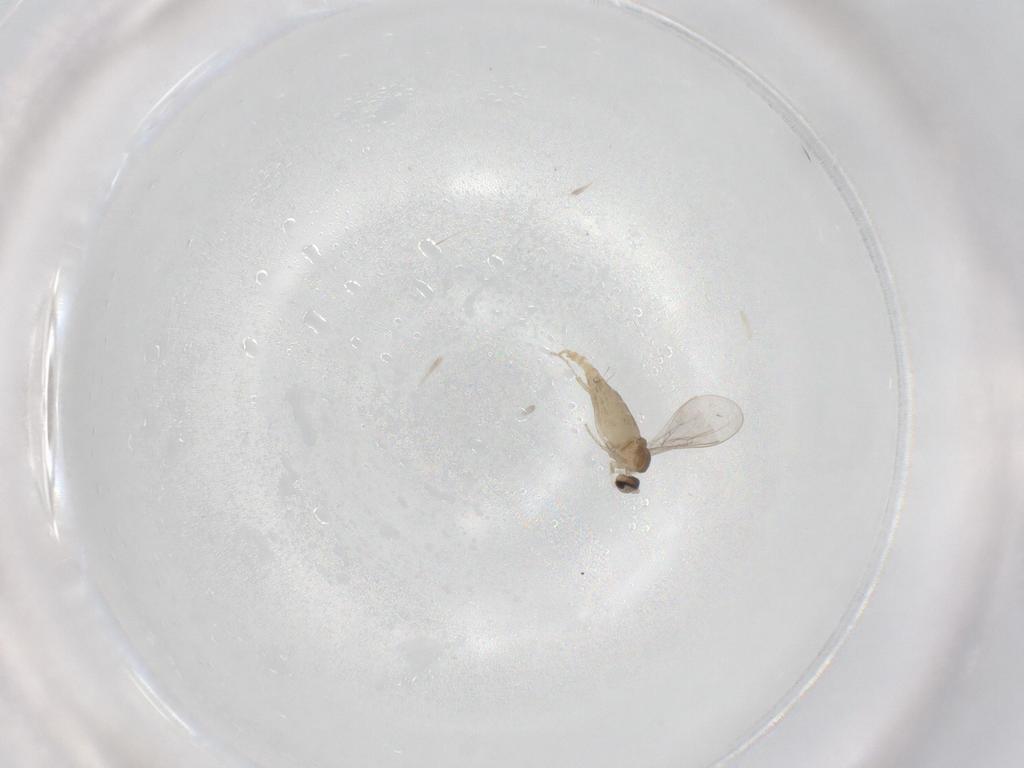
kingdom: Animalia
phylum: Arthropoda
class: Insecta
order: Diptera
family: Cecidomyiidae
